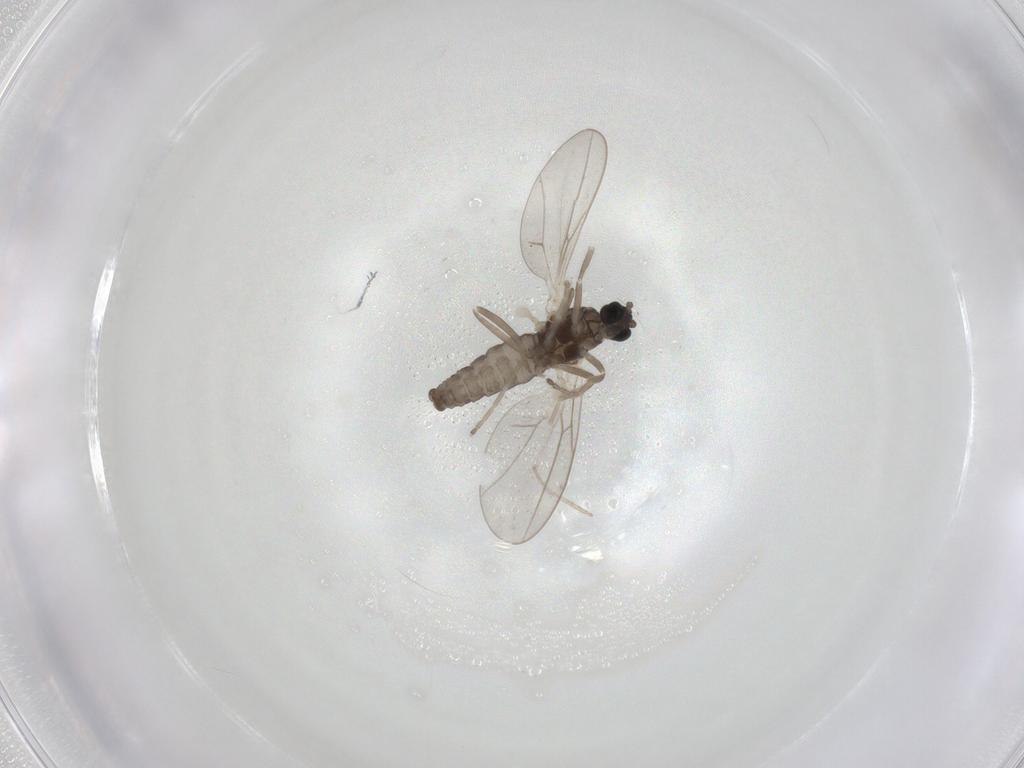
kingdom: Animalia
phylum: Arthropoda
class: Insecta
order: Diptera
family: Cecidomyiidae
